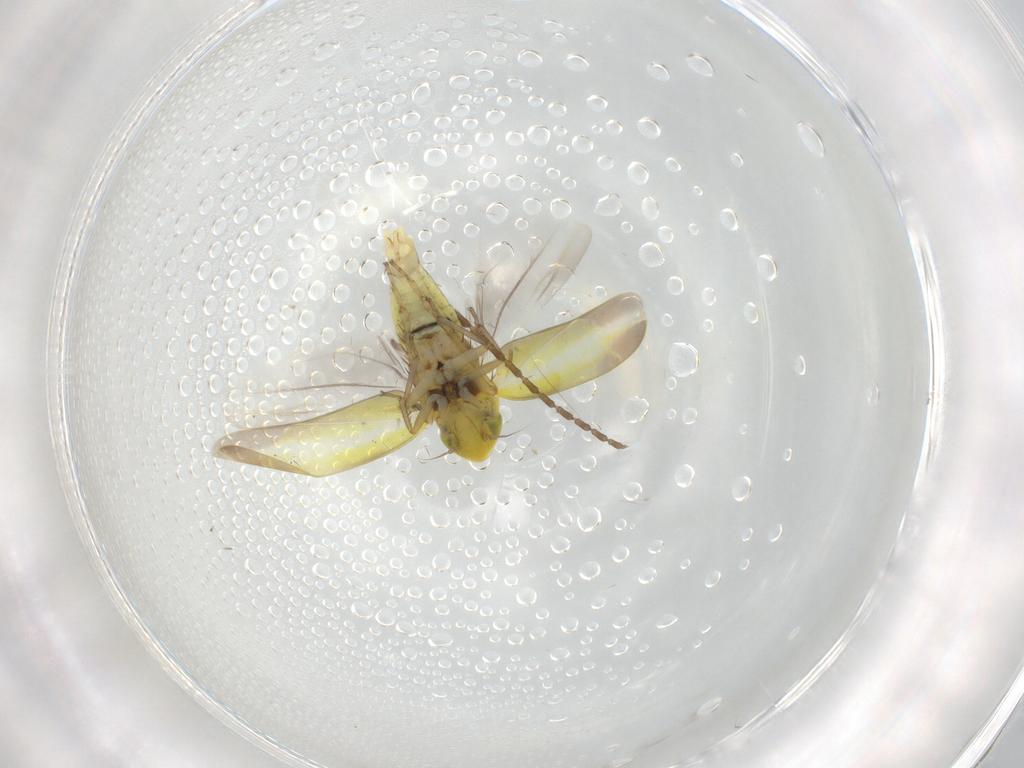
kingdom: Animalia
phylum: Arthropoda
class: Insecta
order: Hemiptera
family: Cicadellidae
